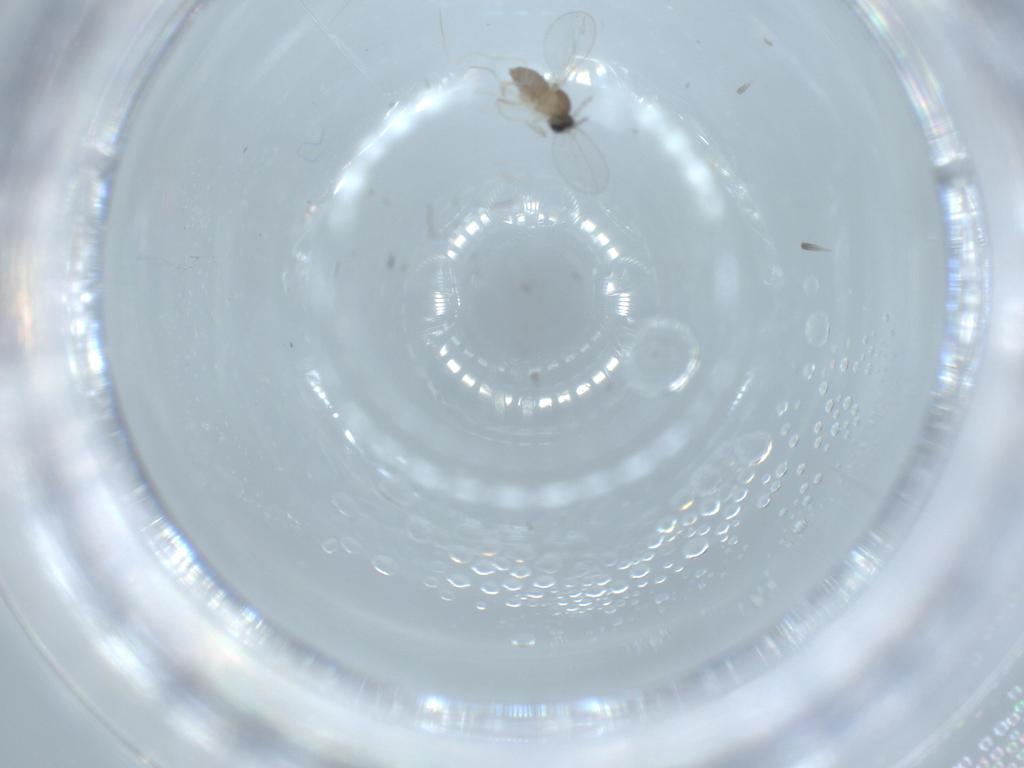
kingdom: Animalia
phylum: Arthropoda
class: Insecta
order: Diptera
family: Cecidomyiidae
